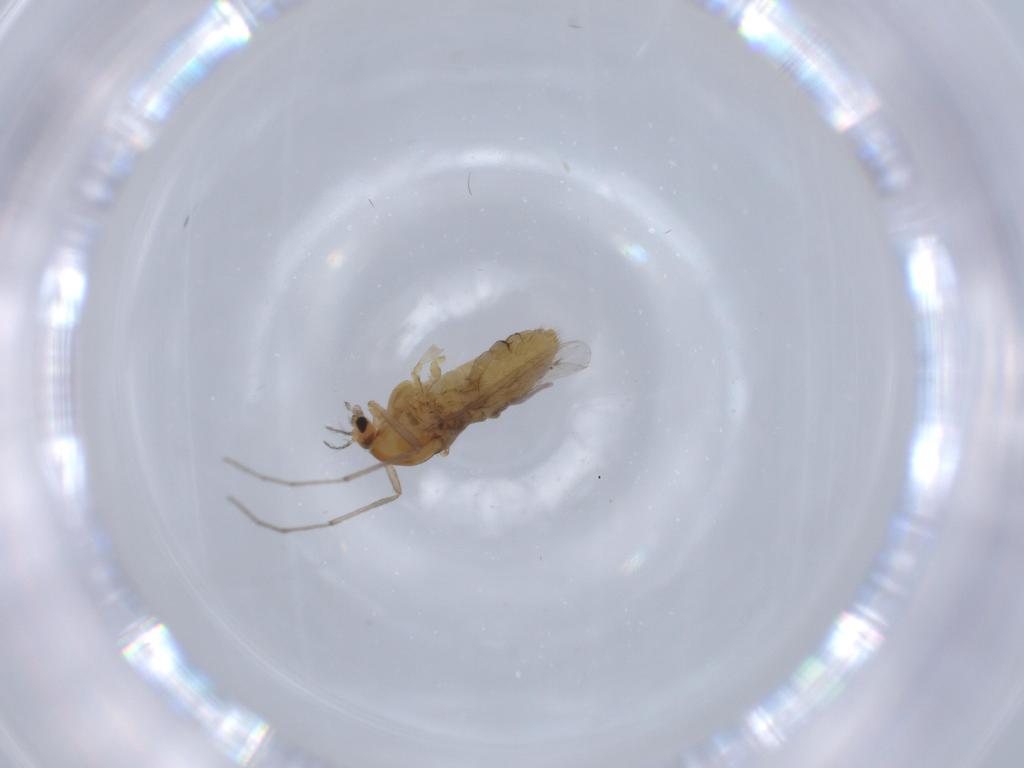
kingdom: Animalia
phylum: Arthropoda
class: Insecta
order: Diptera
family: Chironomidae
